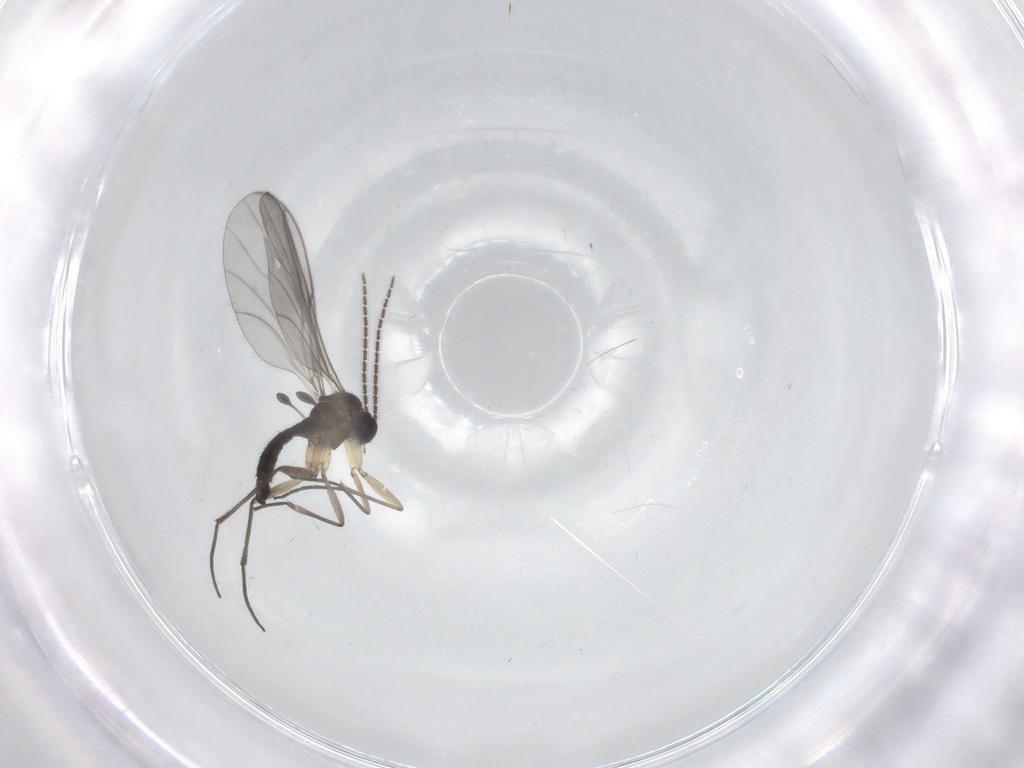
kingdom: Animalia
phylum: Arthropoda
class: Insecta
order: Diptera
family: Sciaridae
